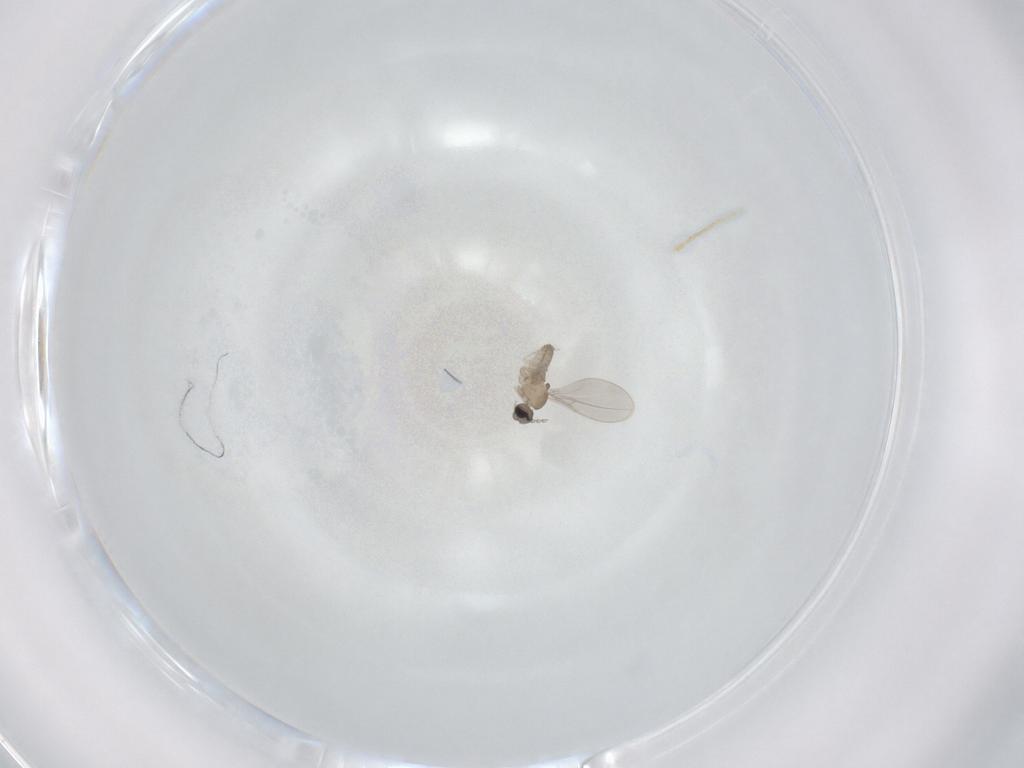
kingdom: Animalia
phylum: Arthropoda
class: Insecta
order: Diptera
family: Cecidomyiidae
